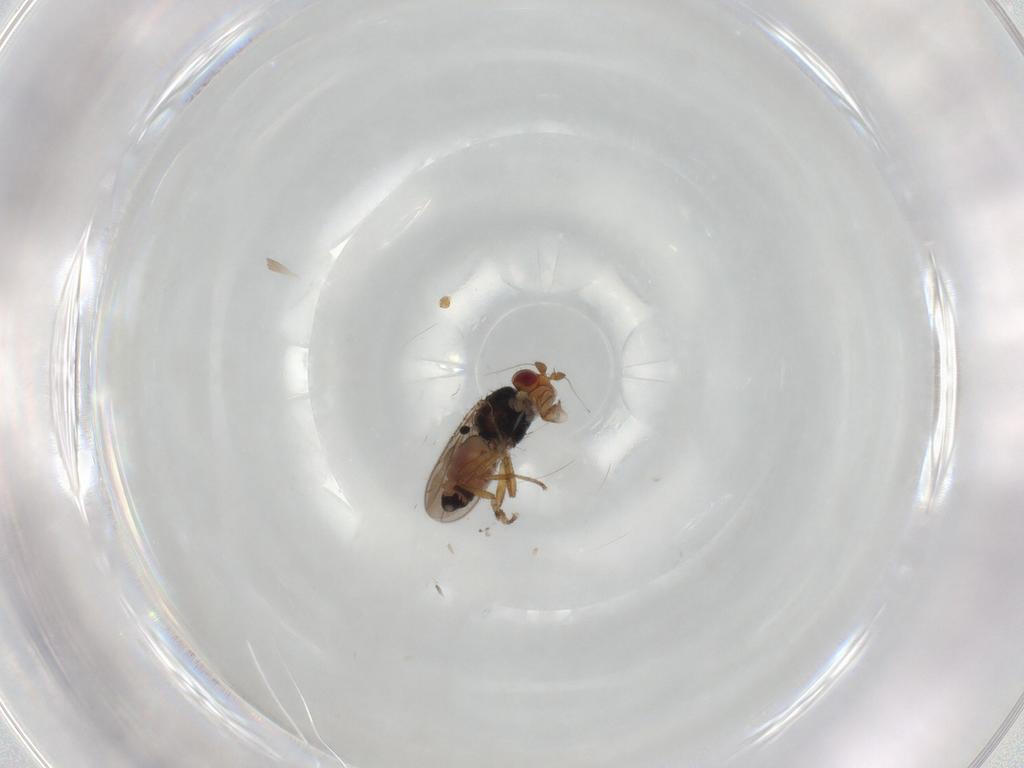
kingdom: Animalia
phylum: Arthropoda
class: Insecta
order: Diptera
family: Sphaeroceridae
